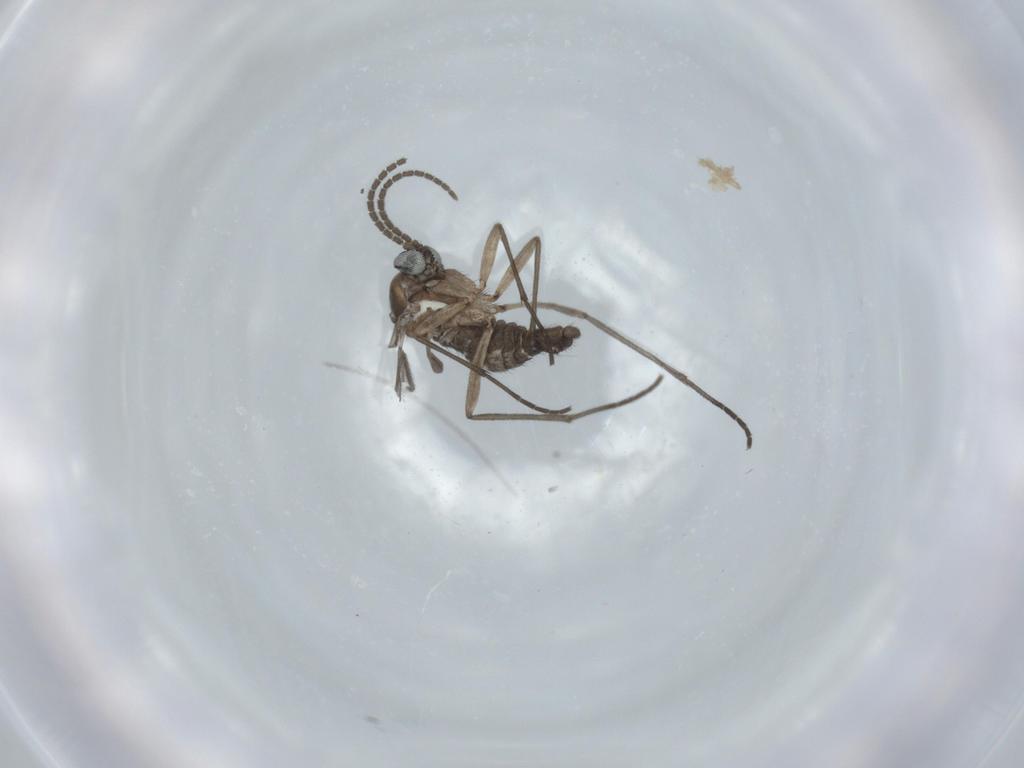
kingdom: Animalia
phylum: Arthropoda
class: Insecta
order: Diptera
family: Sciaridae
